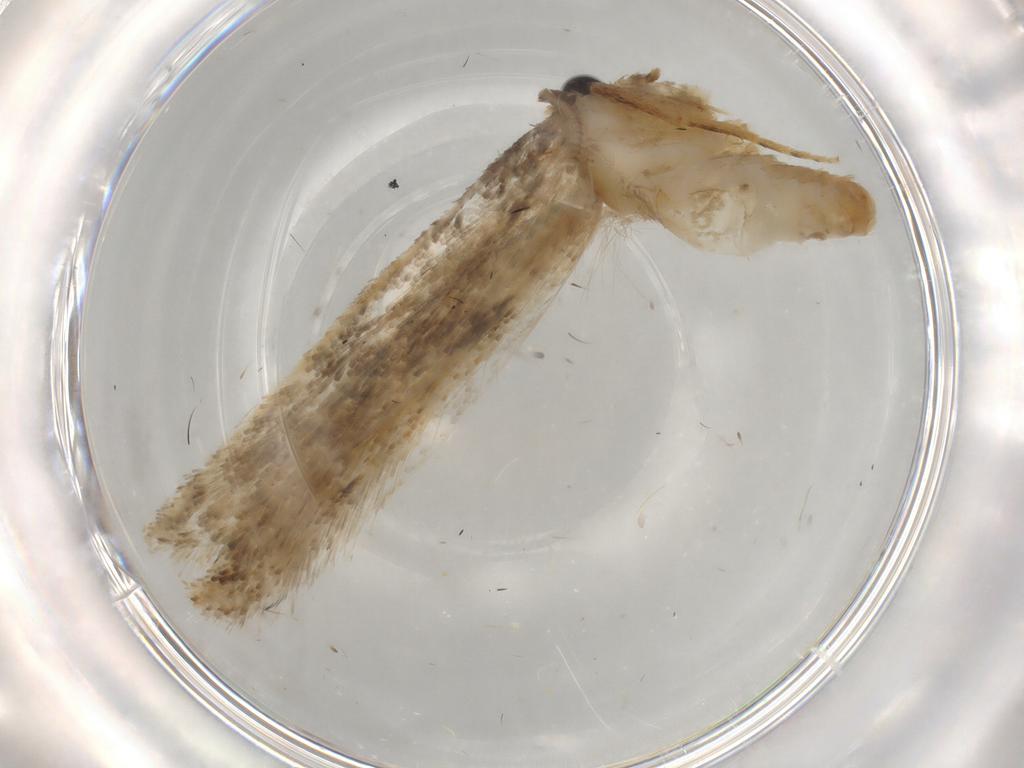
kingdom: Animalia
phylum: Arthropoda
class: Insecta
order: Lepidoptera
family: Tineidae
